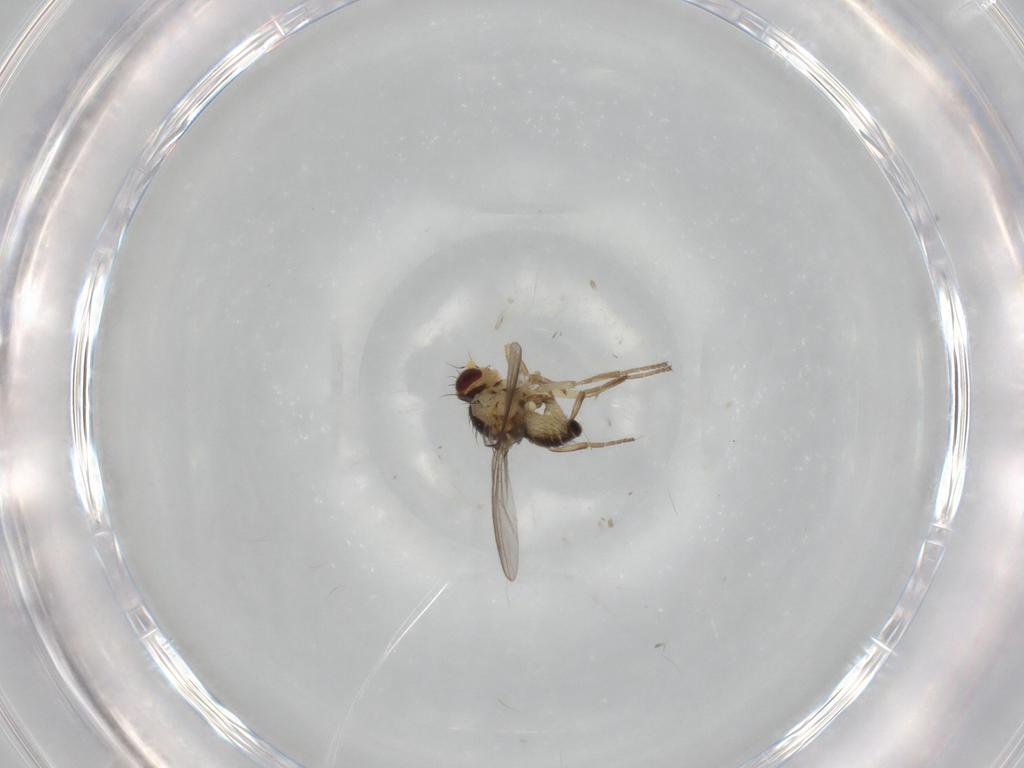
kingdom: Animalia
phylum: Arthropoda
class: Insecta
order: Diptera
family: Agromyzidae
